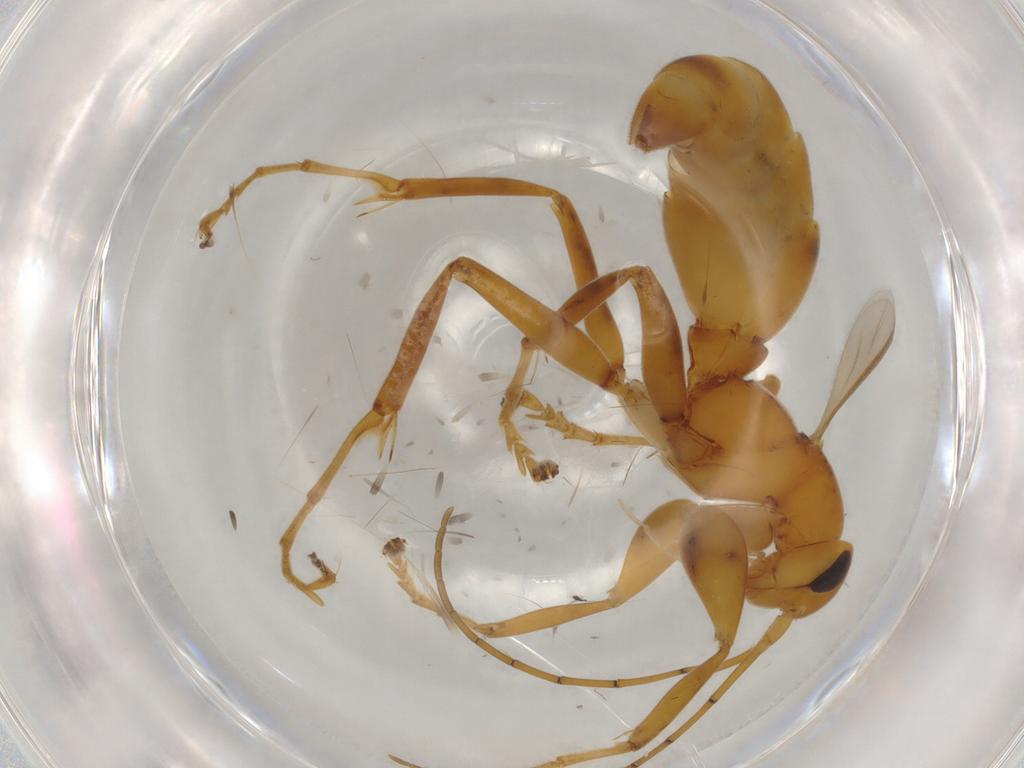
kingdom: Animalia
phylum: Arthropoda
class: Insecta
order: Hymenoptera
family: Rhopalosomatidae
